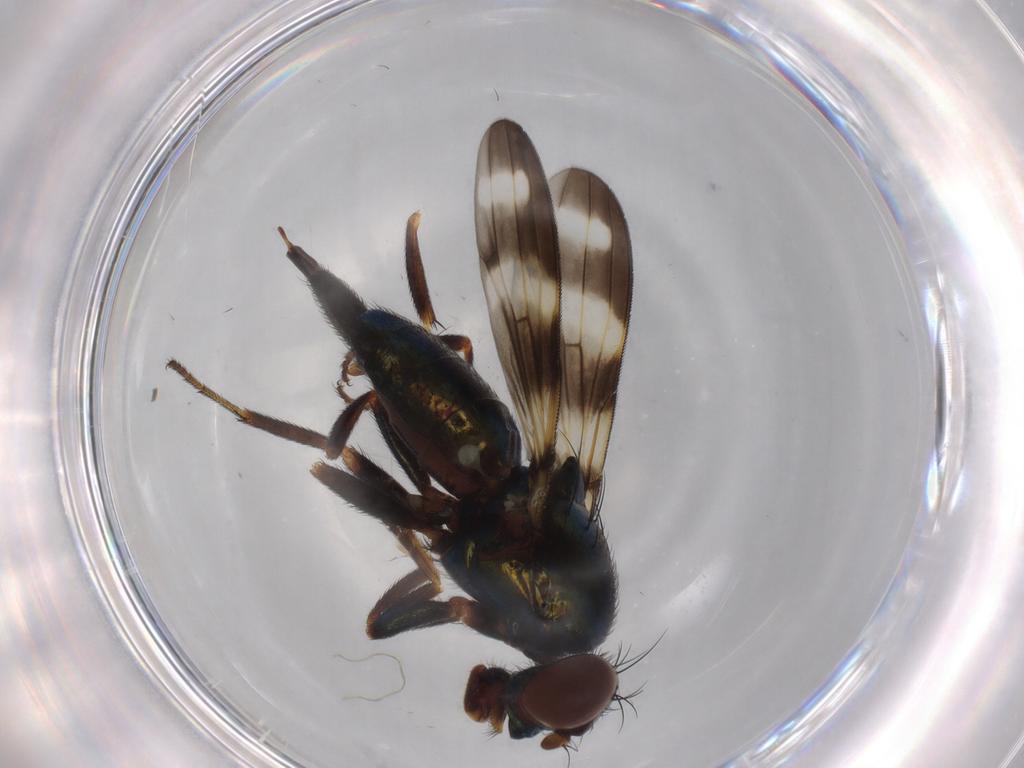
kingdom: Animalia
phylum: Arthropoda
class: Insecta
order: Diptera
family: Ulidiidae
